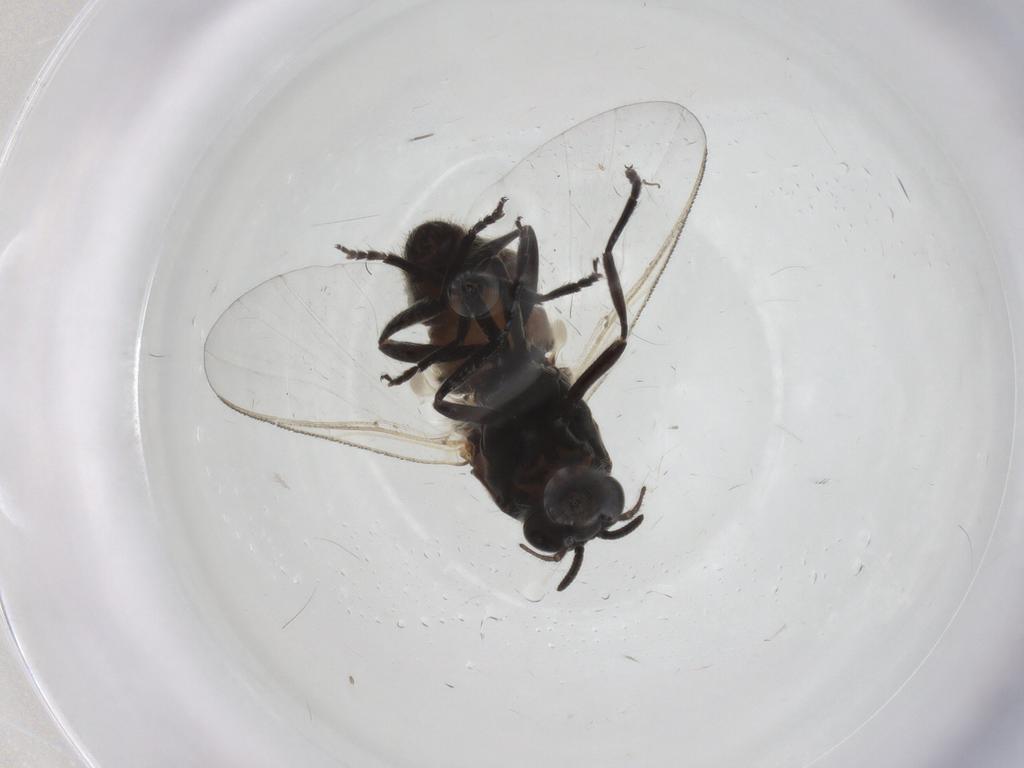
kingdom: Animalia
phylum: Arthropoda
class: Insecta
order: Diptera
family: Simuliidae
